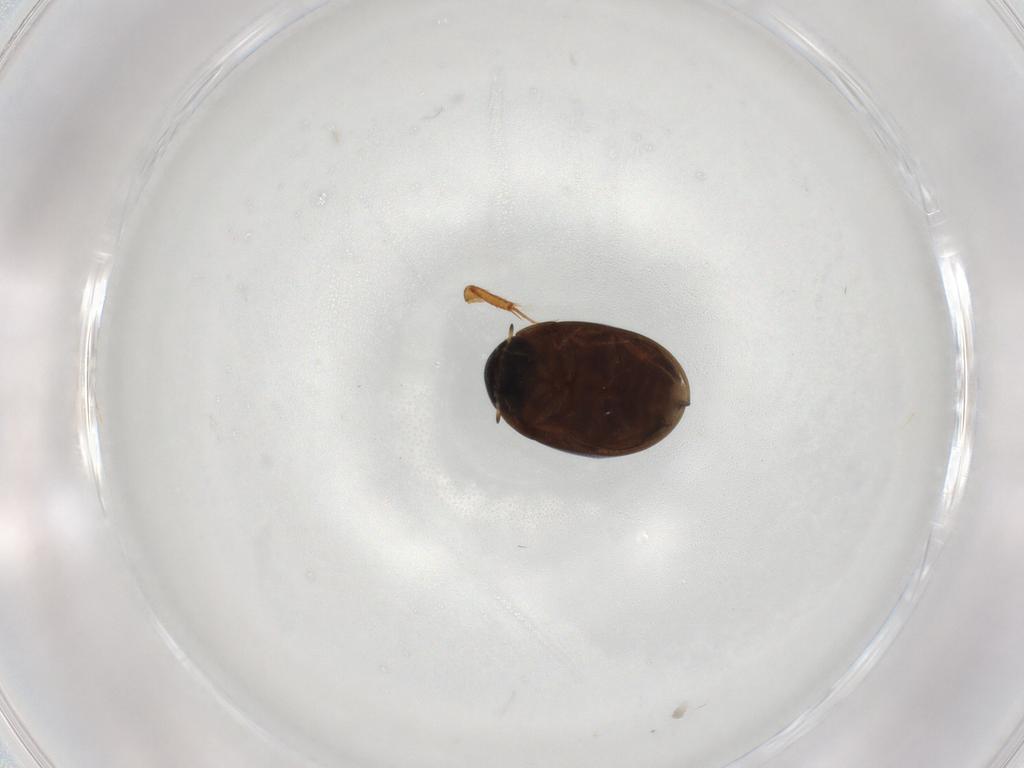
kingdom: Animalia
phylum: Arthropoda
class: Insecta
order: Coleoptera
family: Hydrophilidae
